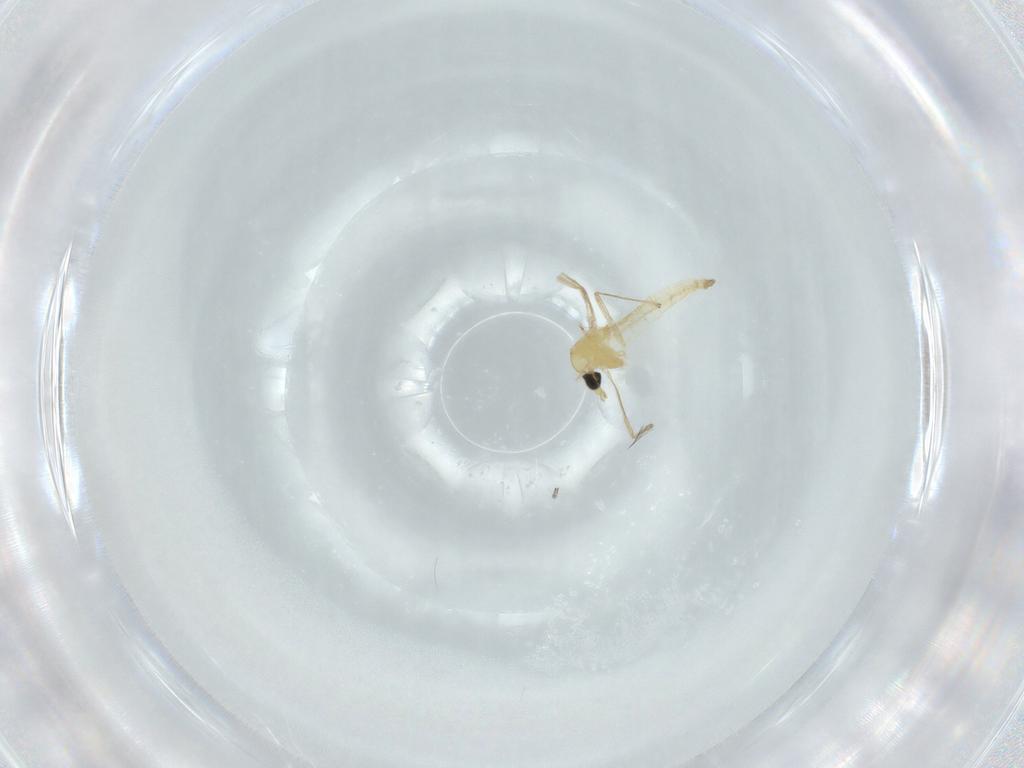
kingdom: Animalia
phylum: Arthropoda
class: Insecta
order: Diptera
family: Chironomidae
